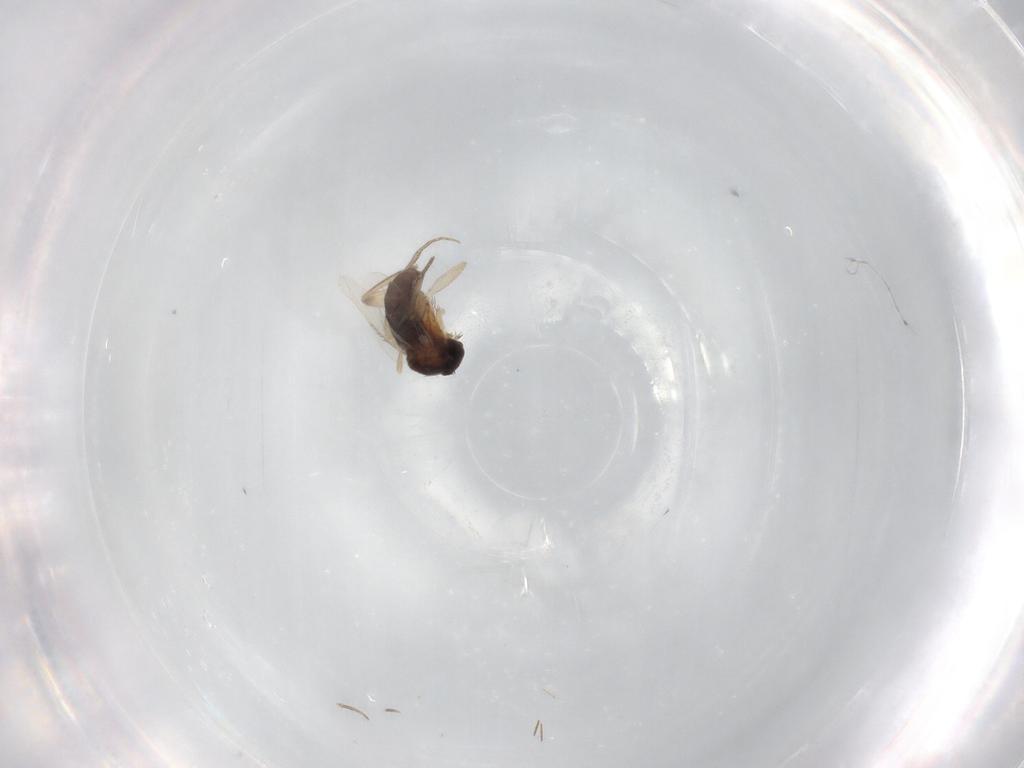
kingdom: Animalia
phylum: Arthropoda
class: Insecta
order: Diptera
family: Phoridae
